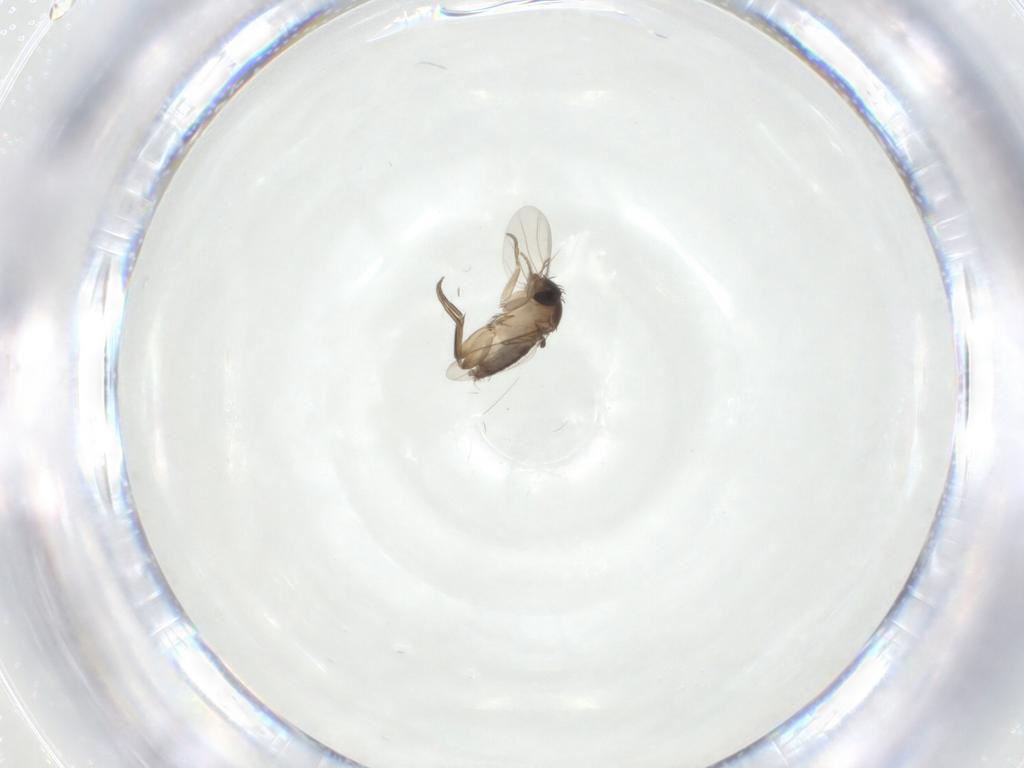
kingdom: Animalia
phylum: Arthropoda
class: Insecta
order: Diptera
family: Phoridae
